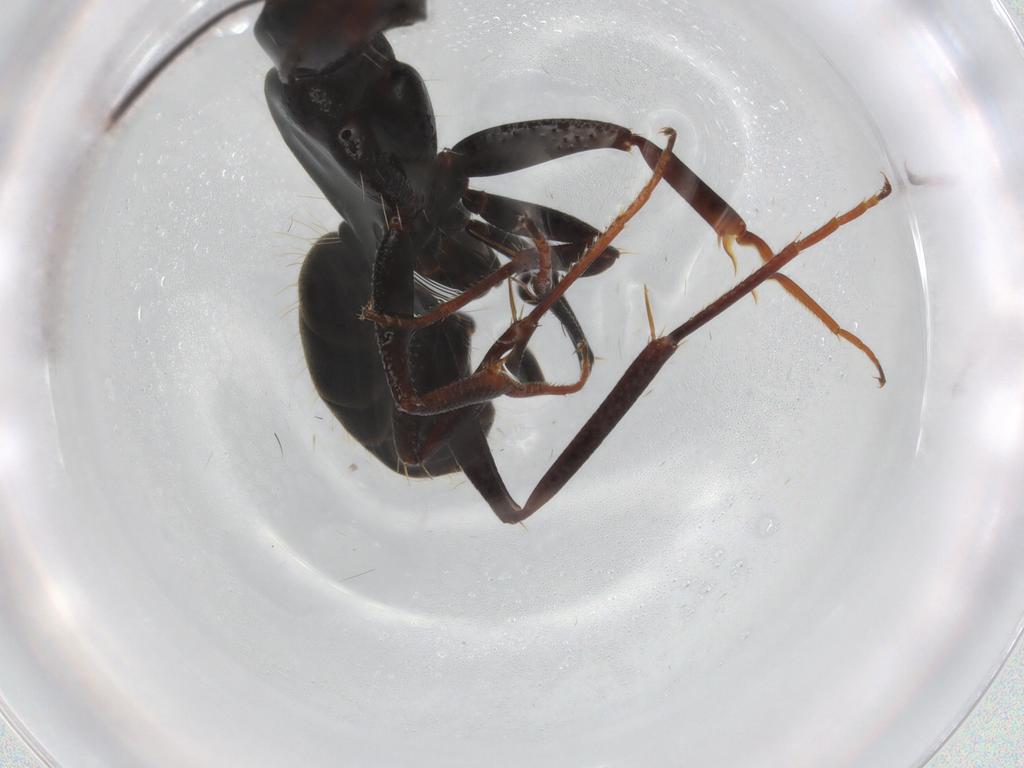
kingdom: Animalia
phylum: Arthropoda
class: Insecta
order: Hymenoptera
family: Formicidae
